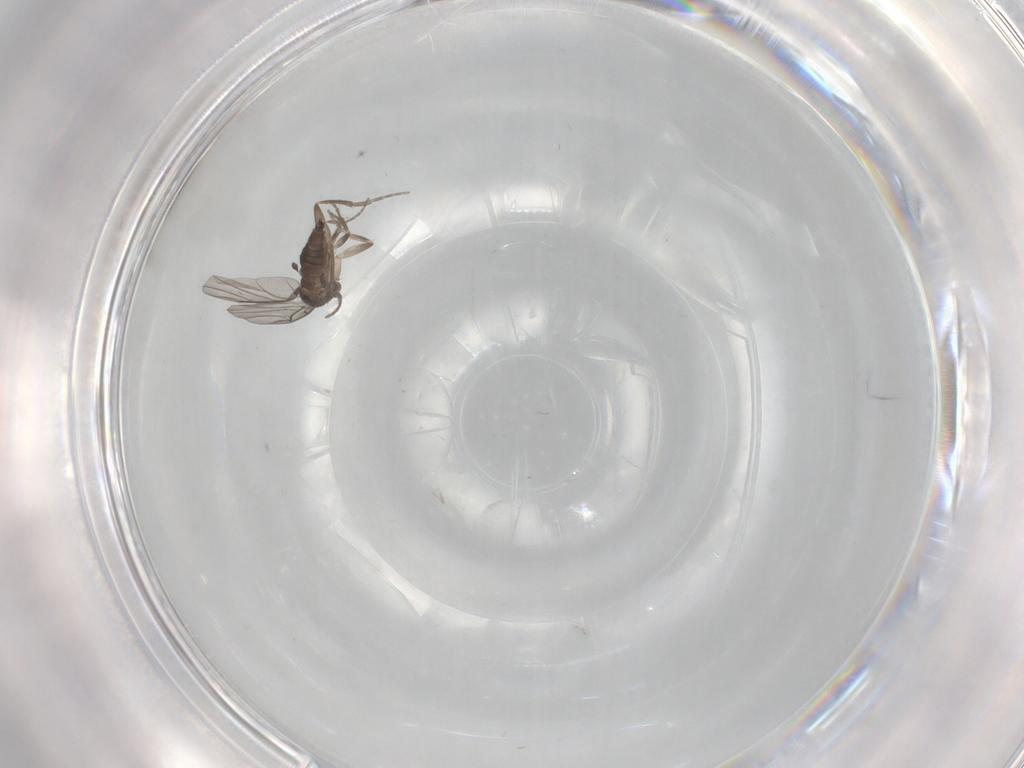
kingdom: Animalia
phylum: Arthropoda
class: Insecta
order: Diptera
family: Phoridae
